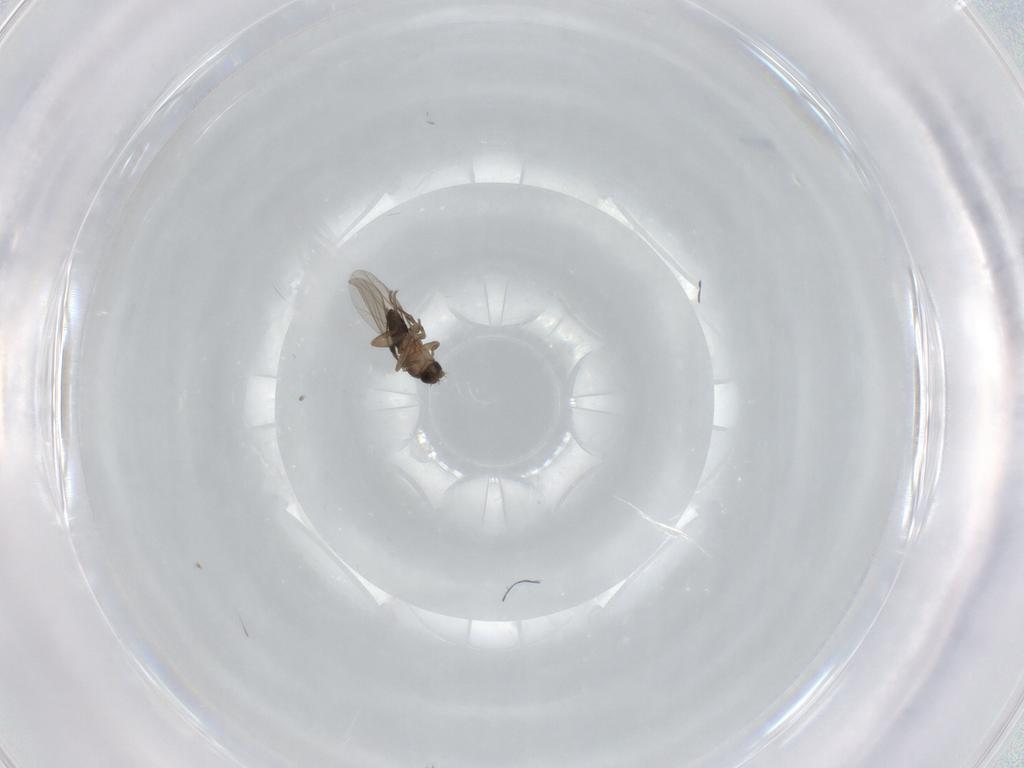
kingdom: Animalia
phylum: Arthropoda
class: Insecta
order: Diptera
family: Muscidae
